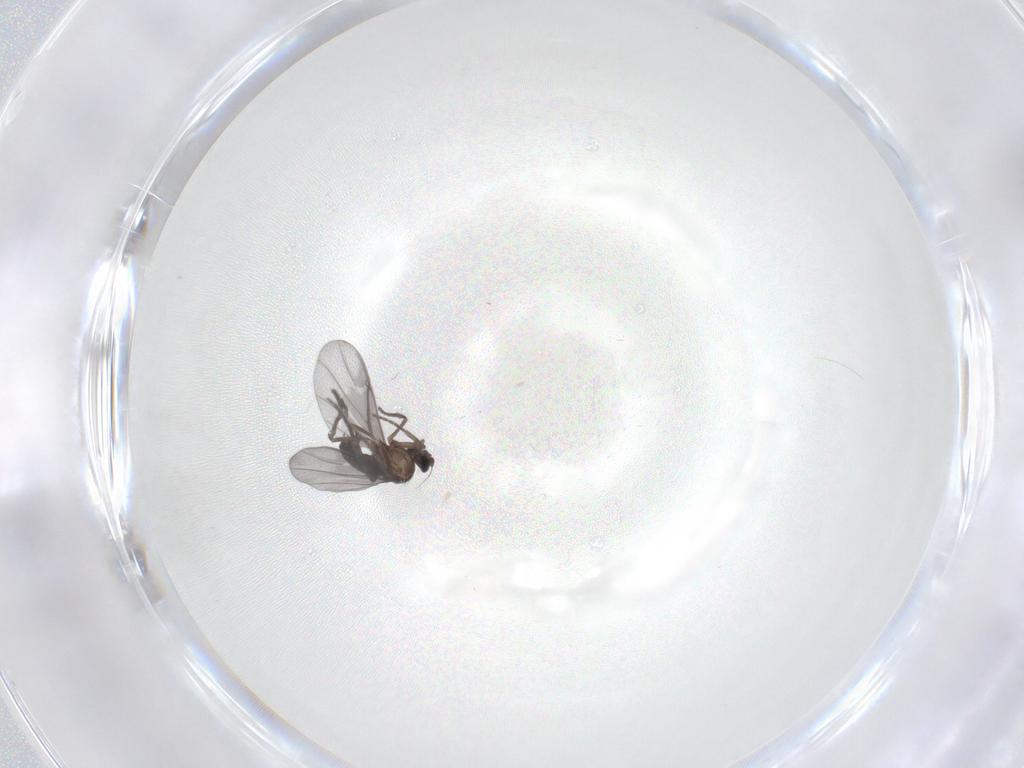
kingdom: Animalia
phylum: Arthropoda
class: Insecta
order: Diptera
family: Phoridae
